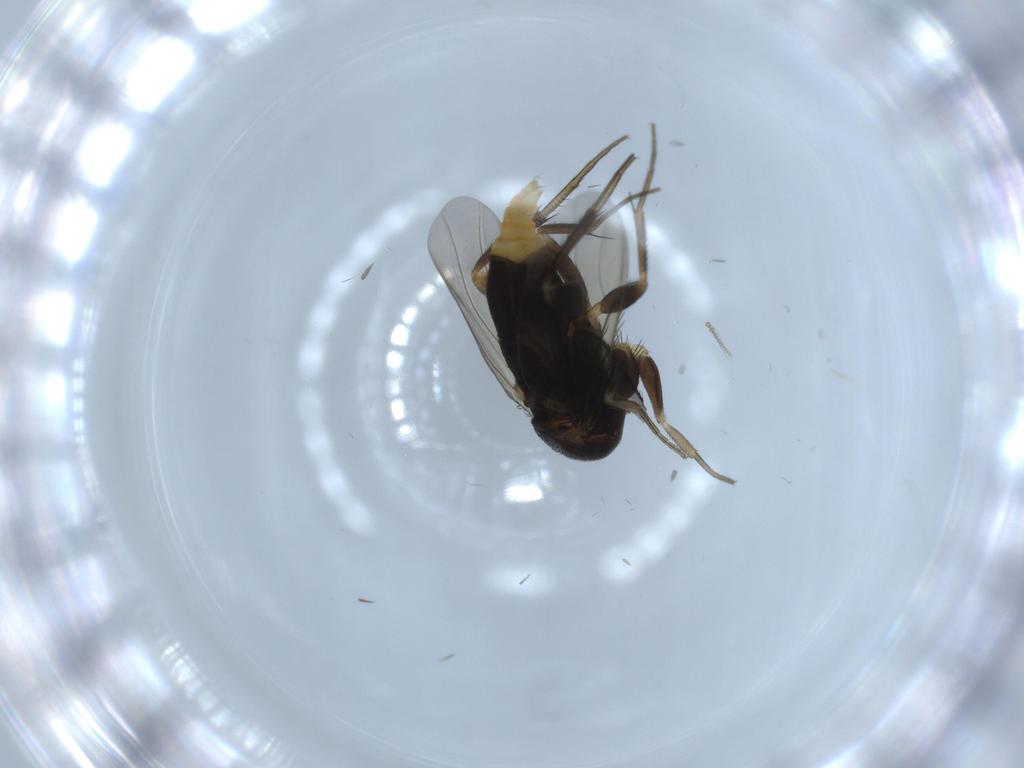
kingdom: Animalia
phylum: Arthropoda
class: Insecta
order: Diptera
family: Phoridae
